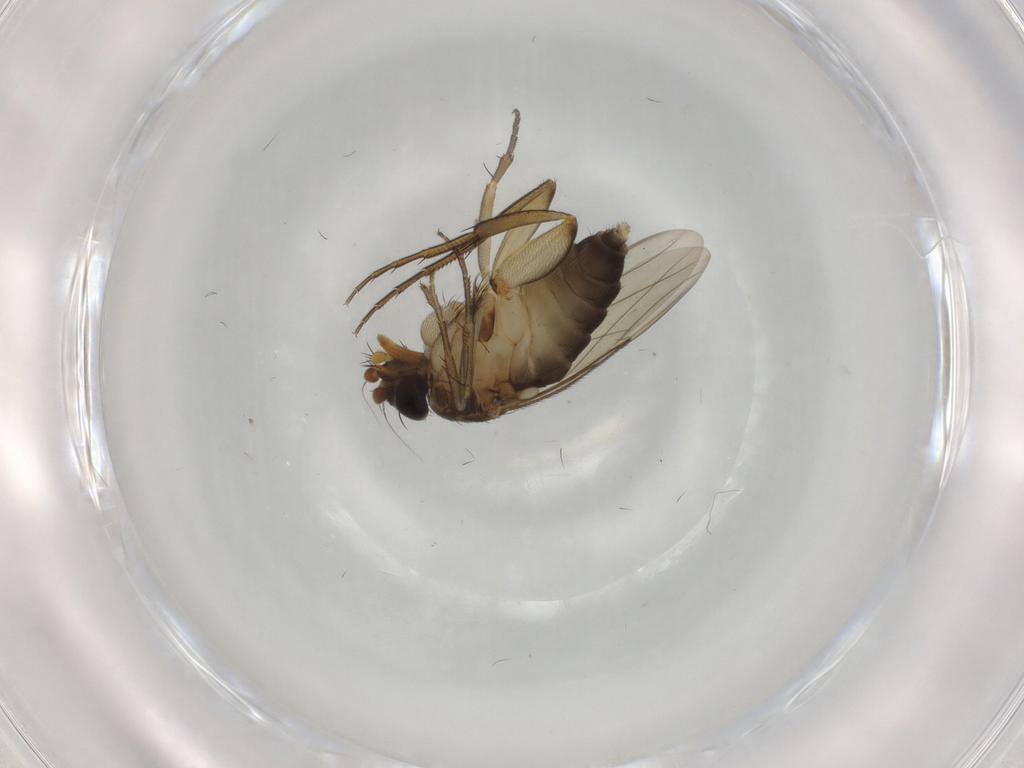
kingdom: Animalia
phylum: Arthropoda
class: Insecta
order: Diptera
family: Phoridae
